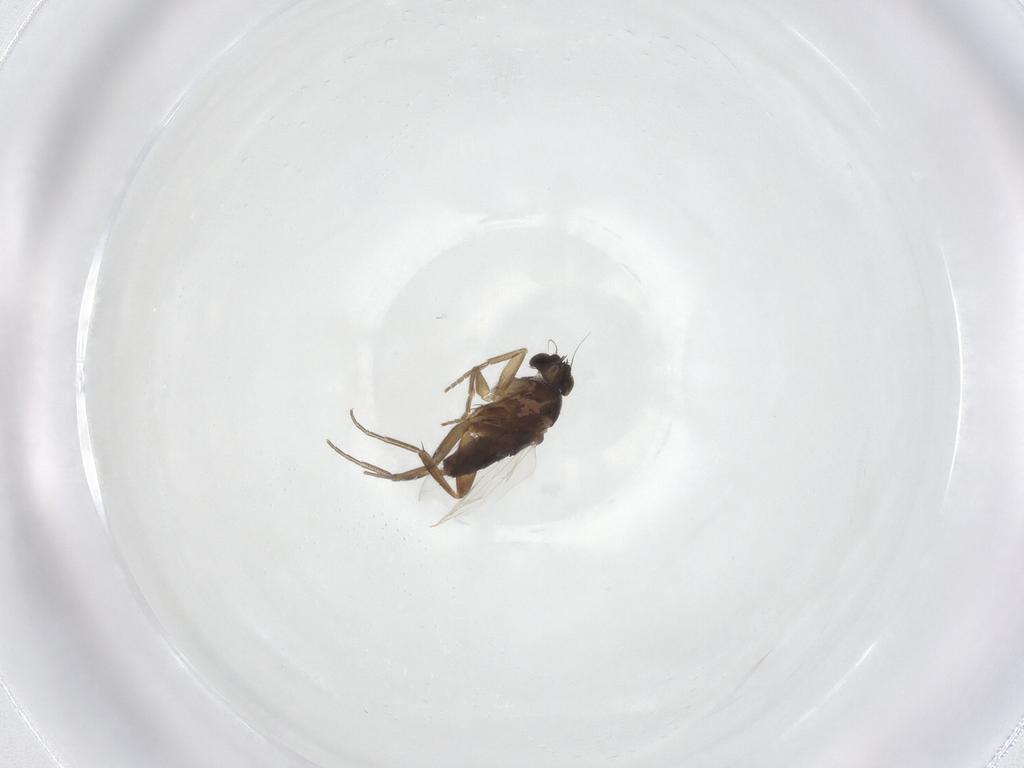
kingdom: Animalia
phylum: Arthropoda
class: Insecta
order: Diptera
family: Phoridae
